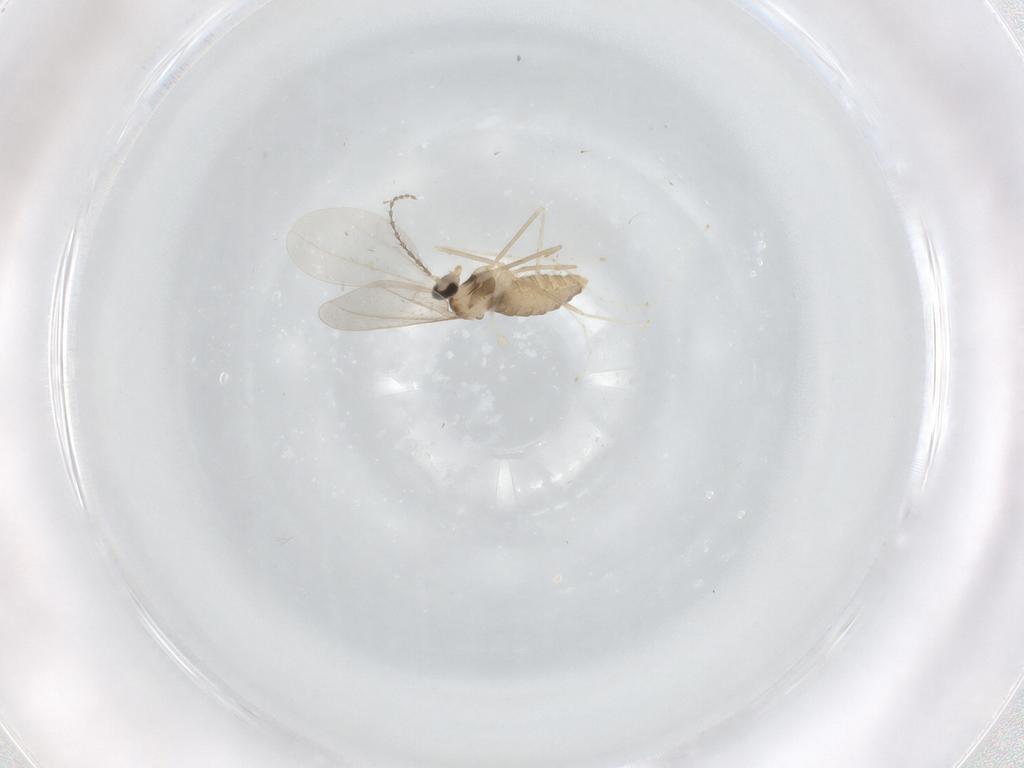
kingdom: Animalia
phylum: Arthropoda
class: Insecta
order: Diptera
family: Cecidomyiidae
